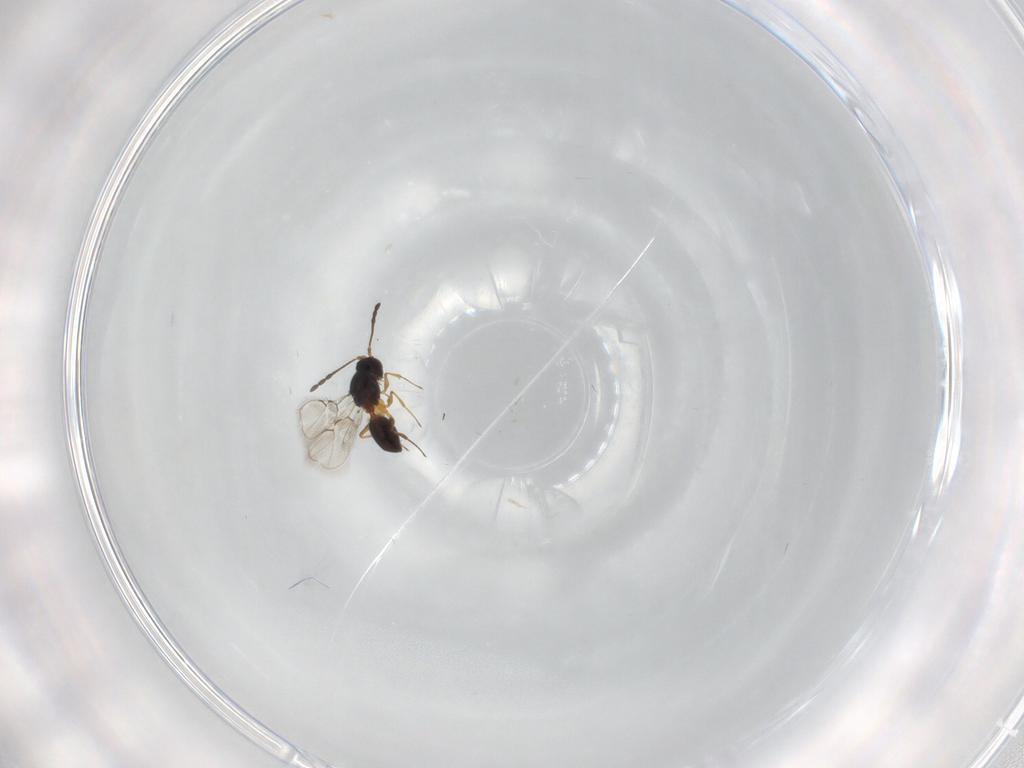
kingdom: Animalia
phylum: Arthropoda
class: Insecta
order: Hymenoptera
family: Figitidae
